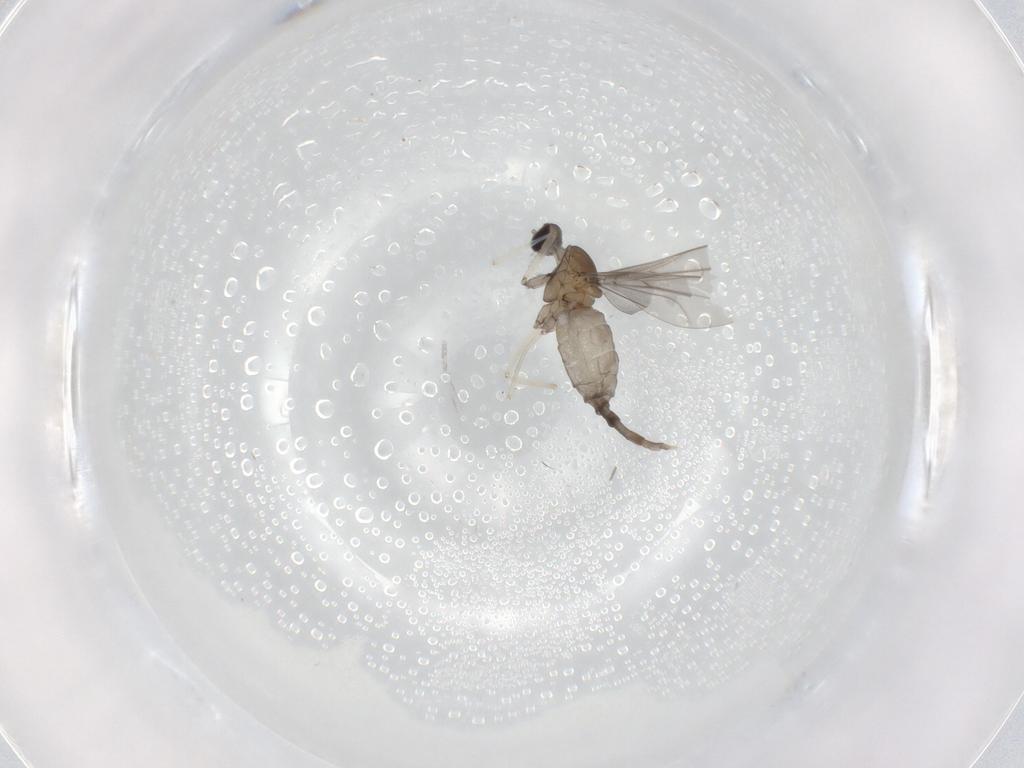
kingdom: Animalia
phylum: Arthropoda
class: Insecta
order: Diptera
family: Cecidomyiidae
